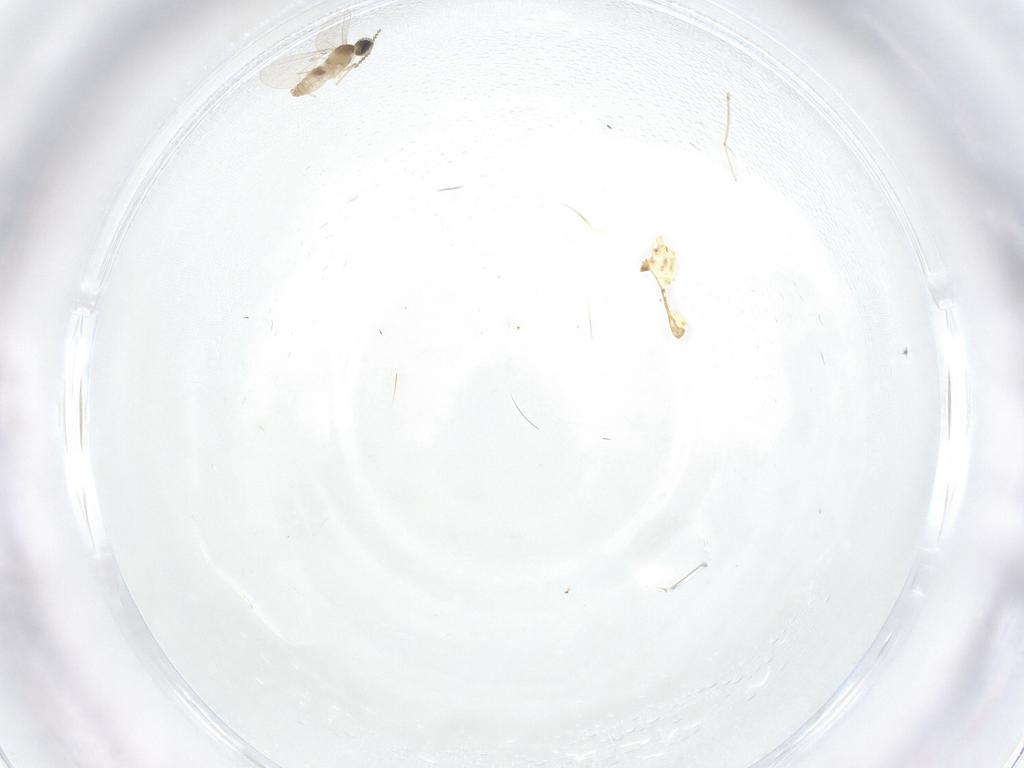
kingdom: Animalia
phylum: Arthropoda
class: Insecta
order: Diptera
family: Cecidomyiidae
